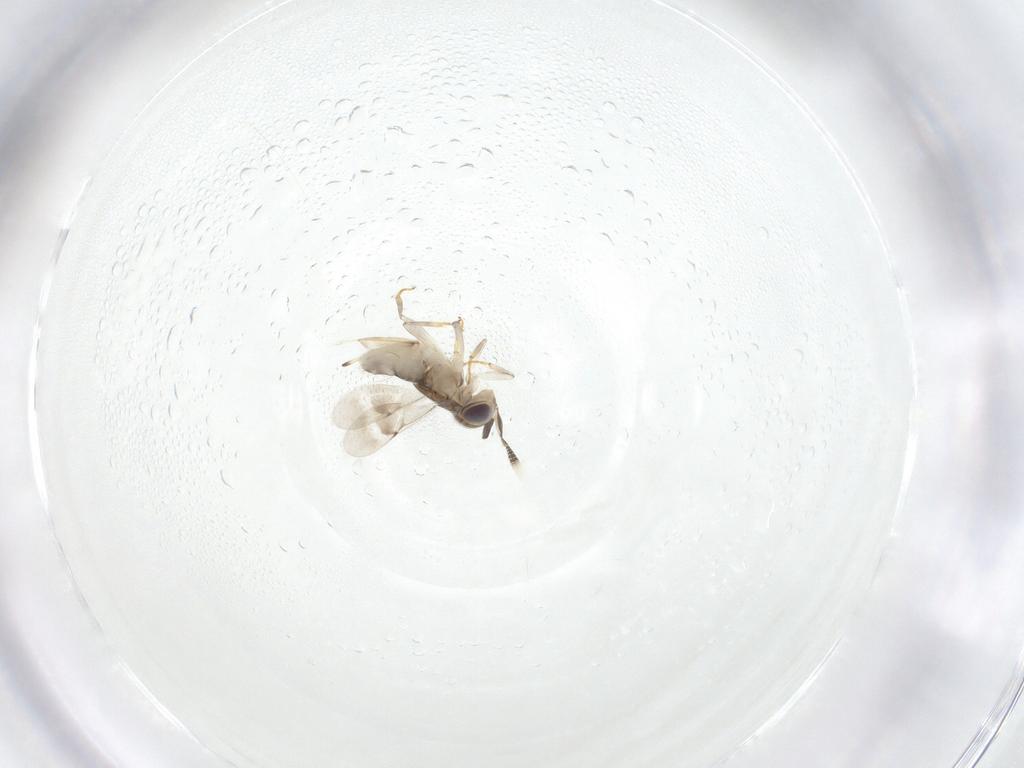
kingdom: Animalia
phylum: Arthropoda
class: Insecta
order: Hymenoptera
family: Encyrtidae
